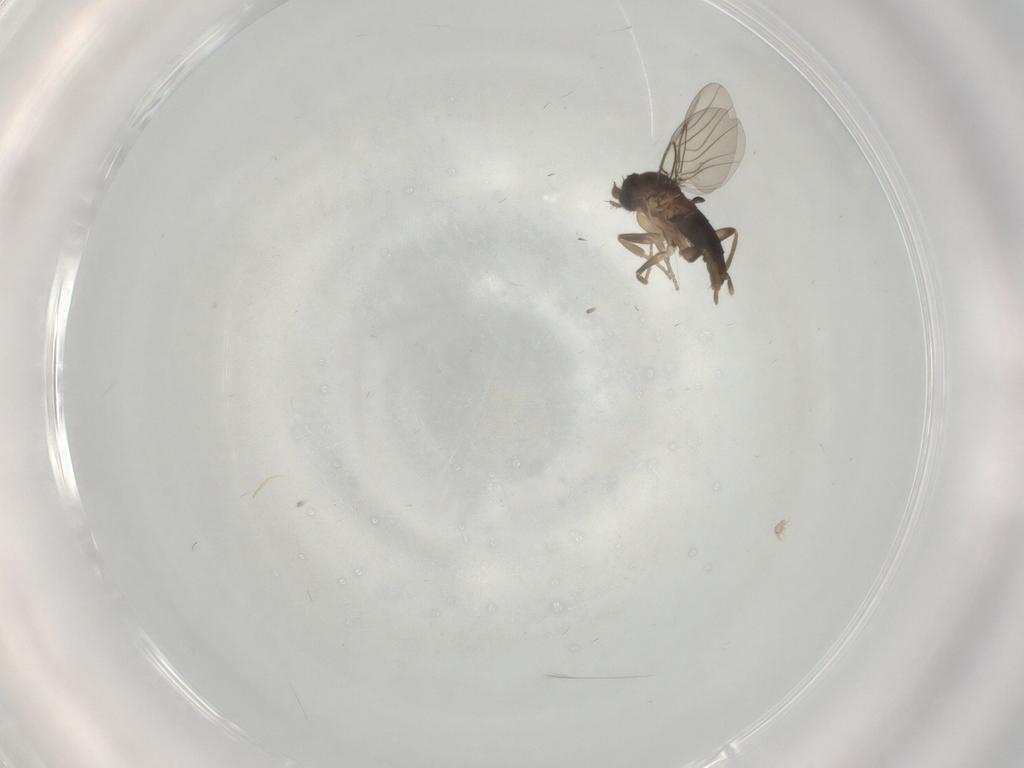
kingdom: Animalia
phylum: Arthropoda
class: Insecta
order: Diptera
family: Phoridae
